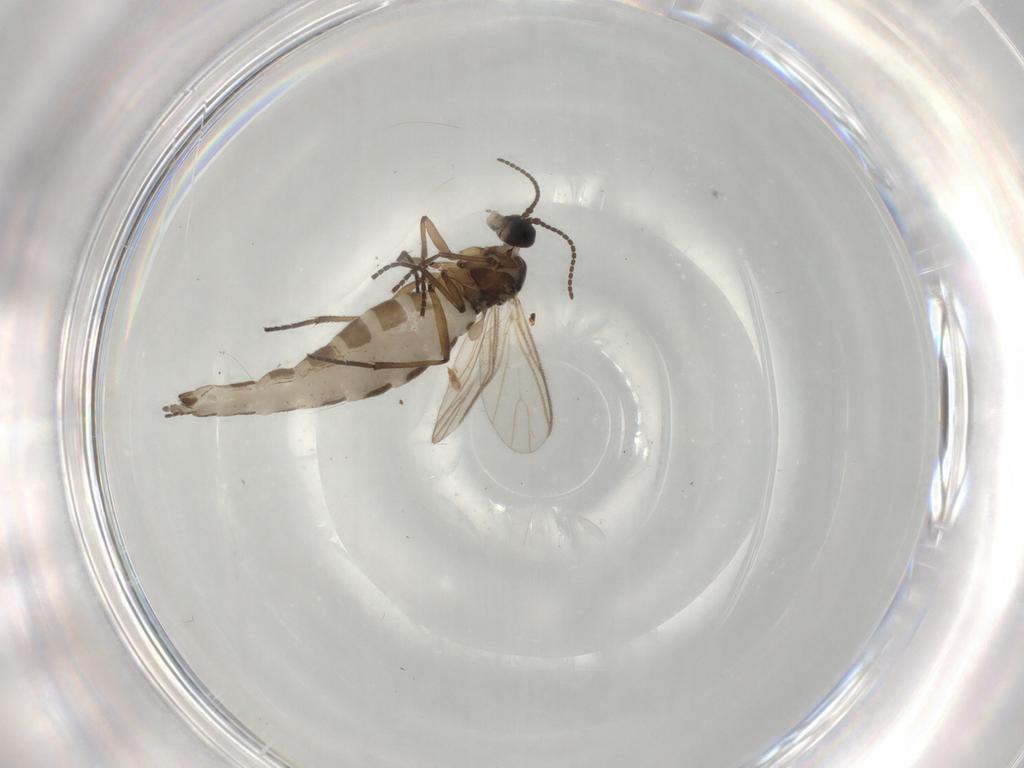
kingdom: Animalia
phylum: Arthropoda
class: Insecta
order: Diptera
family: Sciaridae
